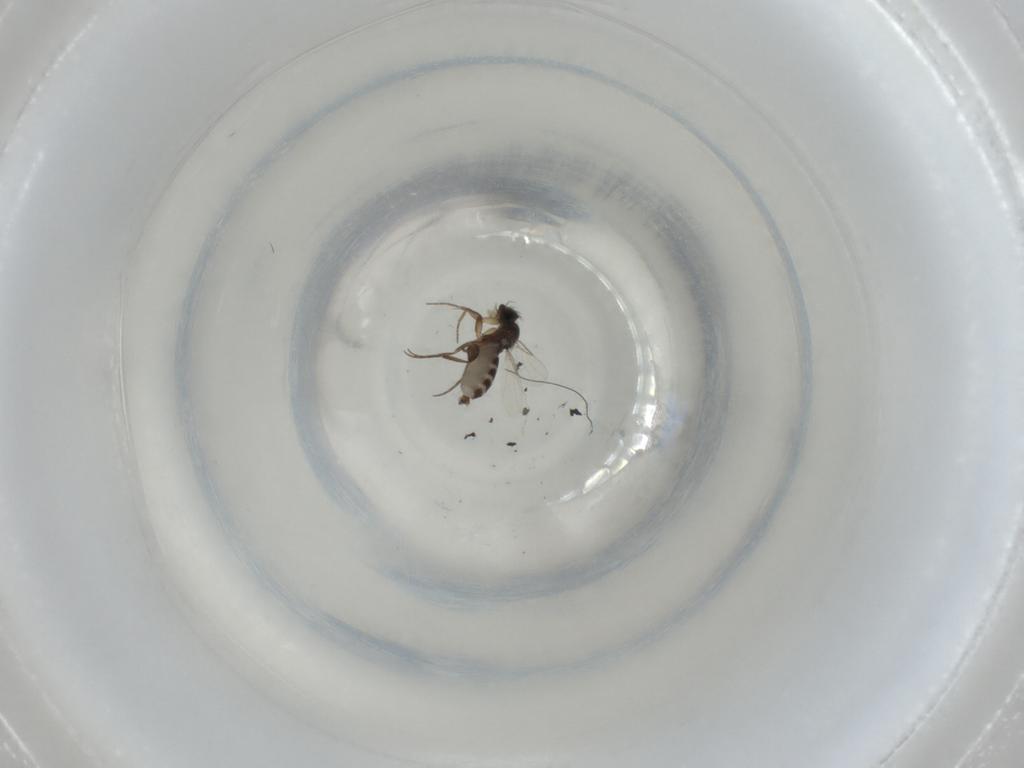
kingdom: Animalia
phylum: Arthropoda
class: Insecta
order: Diptera
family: Phoridae
